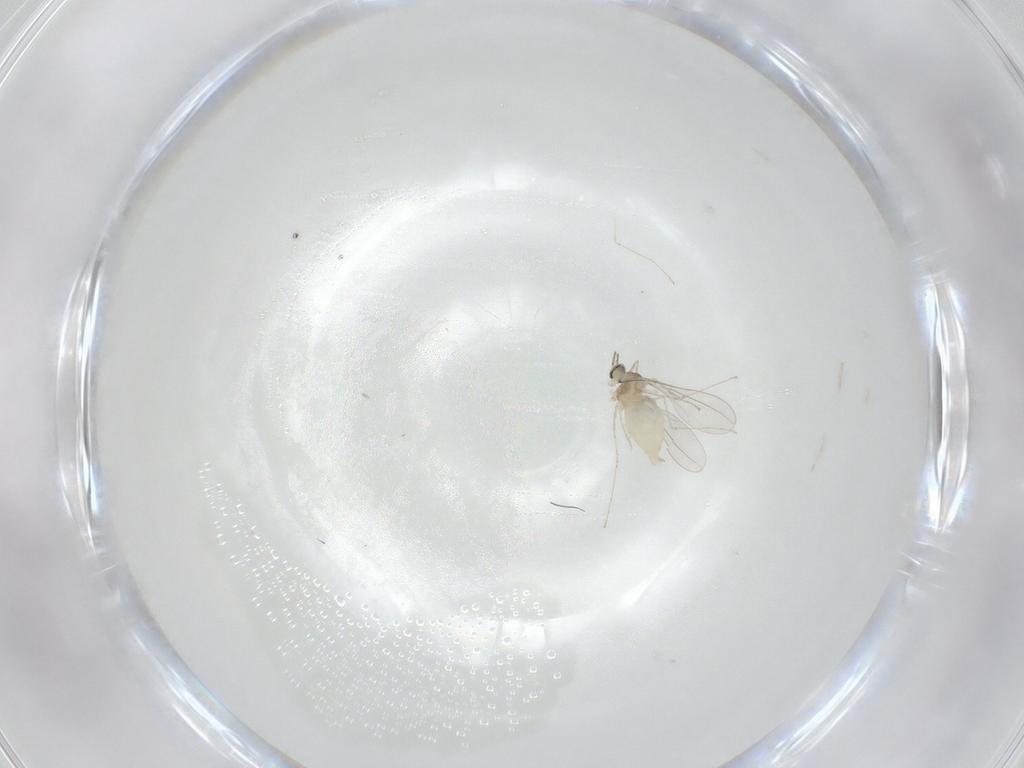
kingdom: Animalia
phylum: Arthropoda
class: Insecta
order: Diptera
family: Cecidomyiidae
